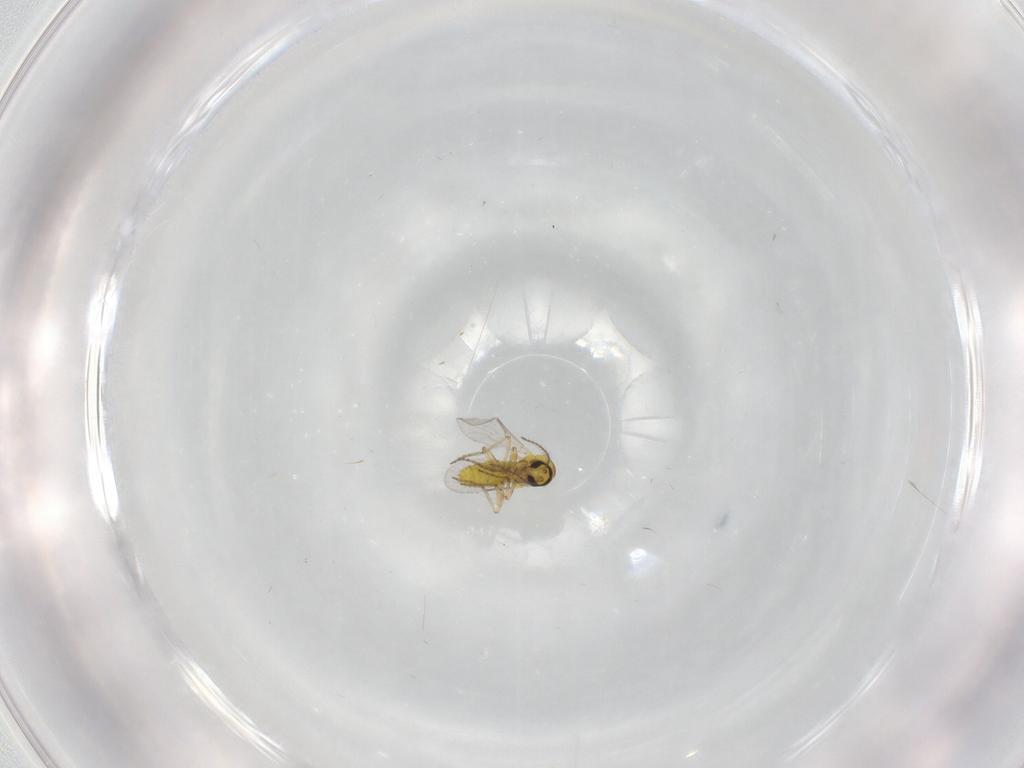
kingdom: Animalia
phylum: Arthropoda
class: Insecta
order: Diptera
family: Ceratopogonidae
